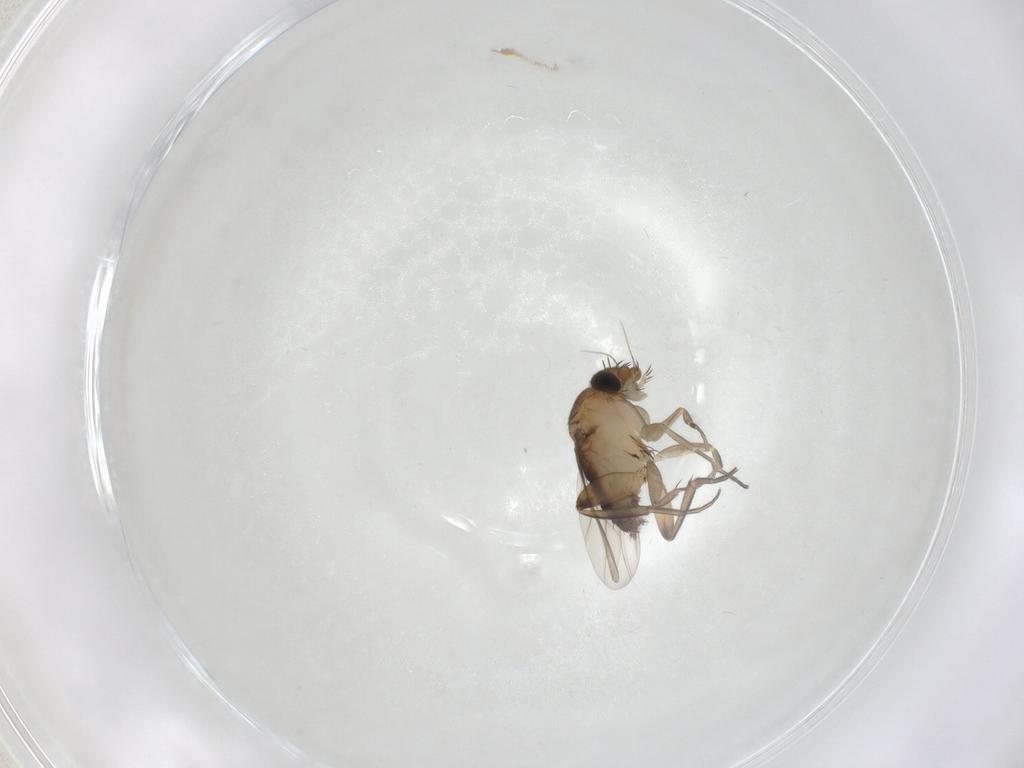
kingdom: Animalia
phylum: Arthropoda
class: Insecta
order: Diptera
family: Phoridae
